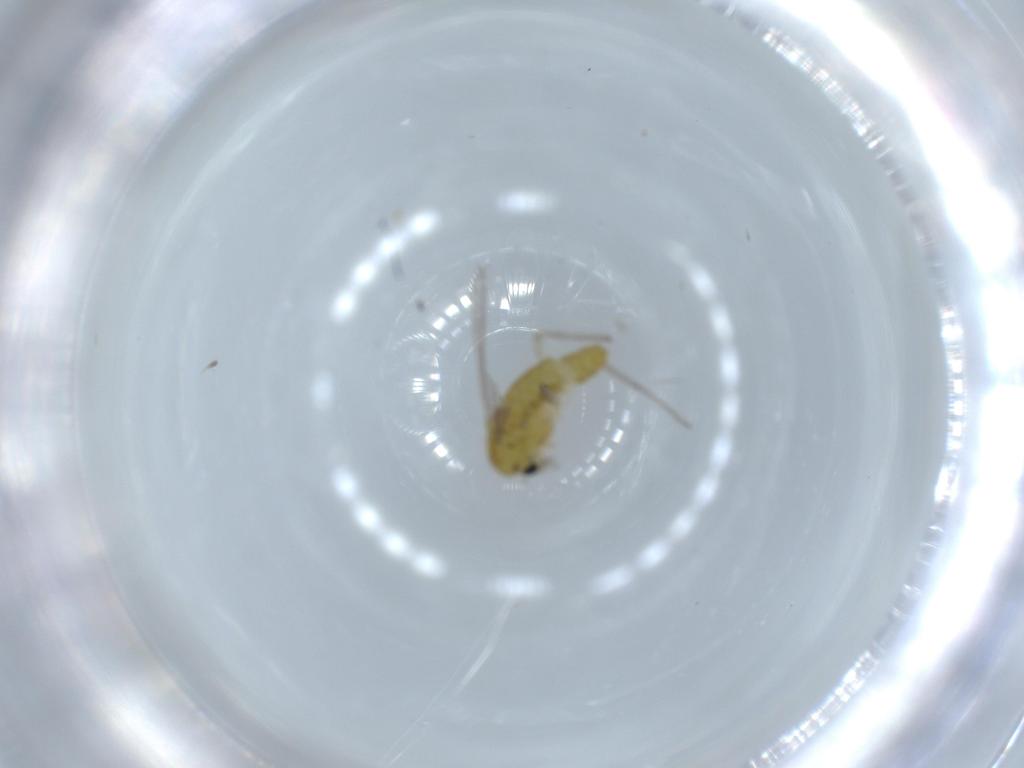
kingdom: Animalia
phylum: Arthropoda
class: Insecta
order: Diptera
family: Chironomidae
